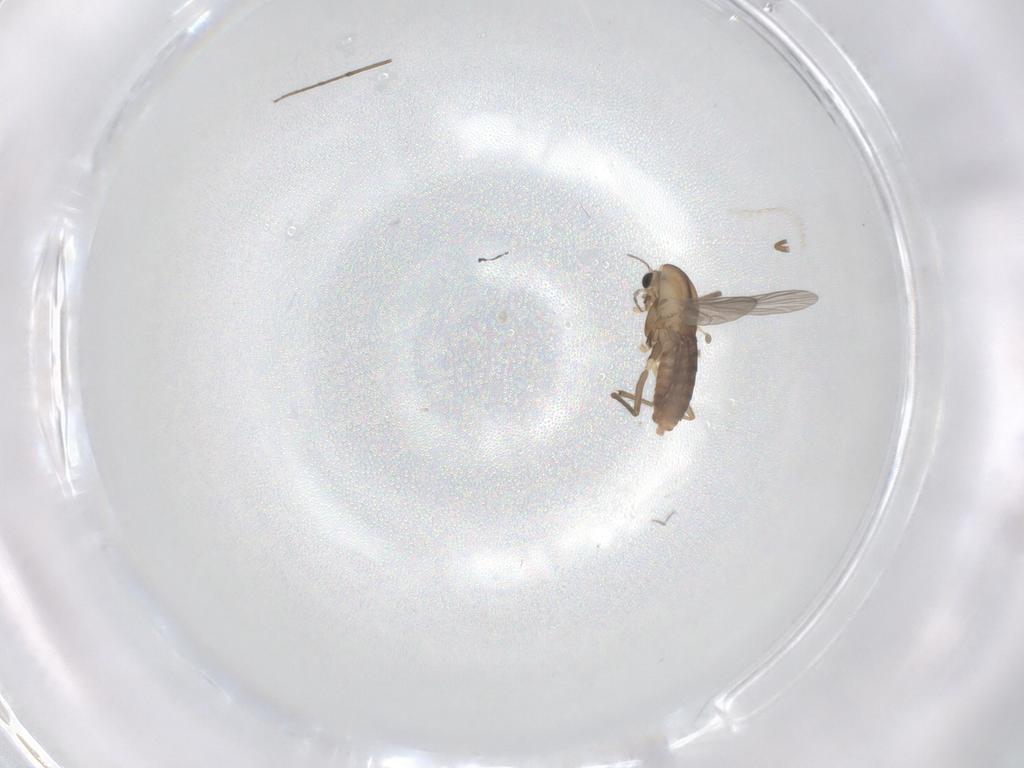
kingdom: Animalia
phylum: Arthropoda
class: Insecta
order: Diptera
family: Chironomidae
